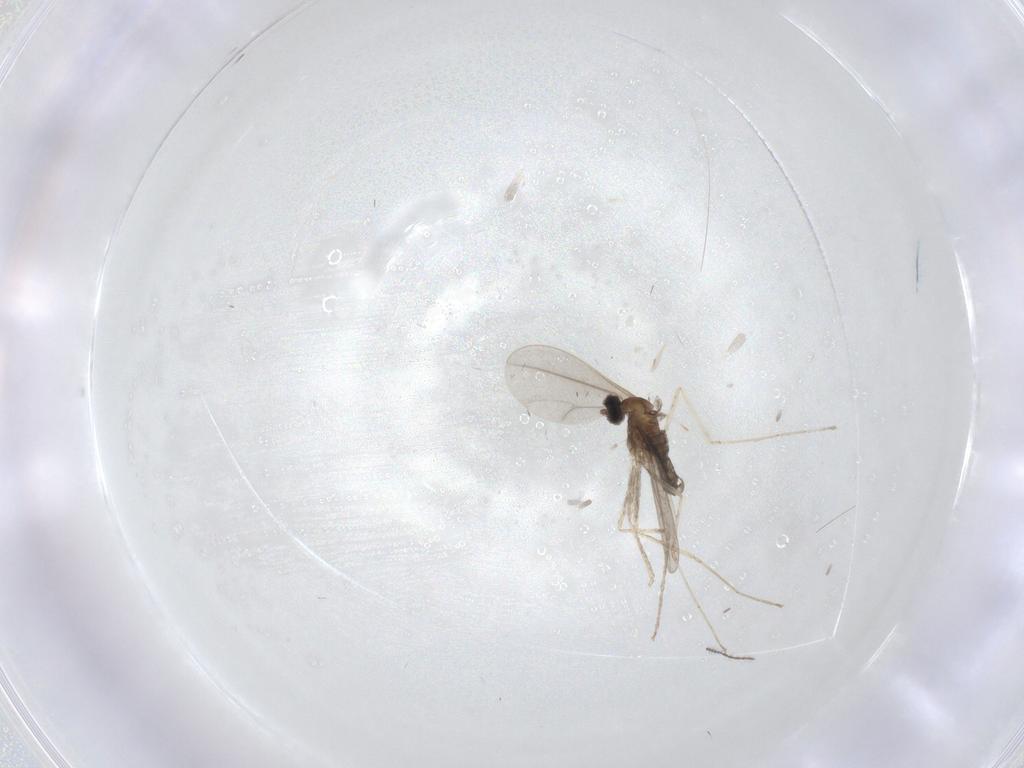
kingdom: Animalia
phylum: Arthropoda
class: Insecta
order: Diptera
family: Ceratopogonidae
